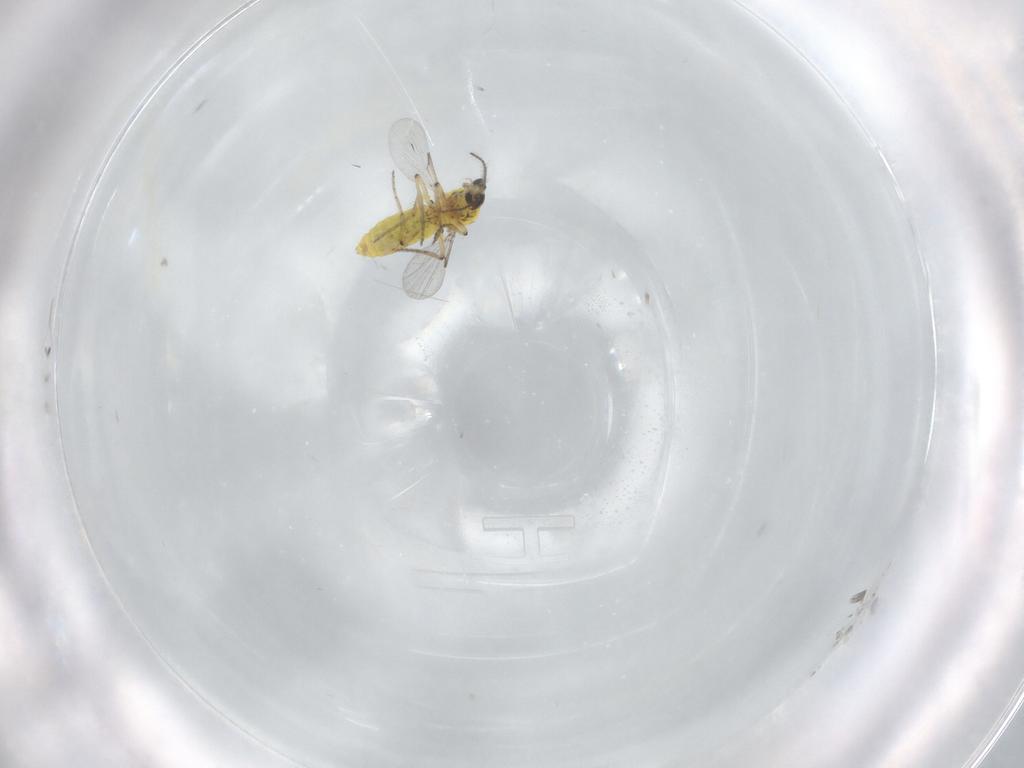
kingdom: Animalia
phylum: Arthropoda
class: Insecta
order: Diptera
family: Ceratopogonidae
